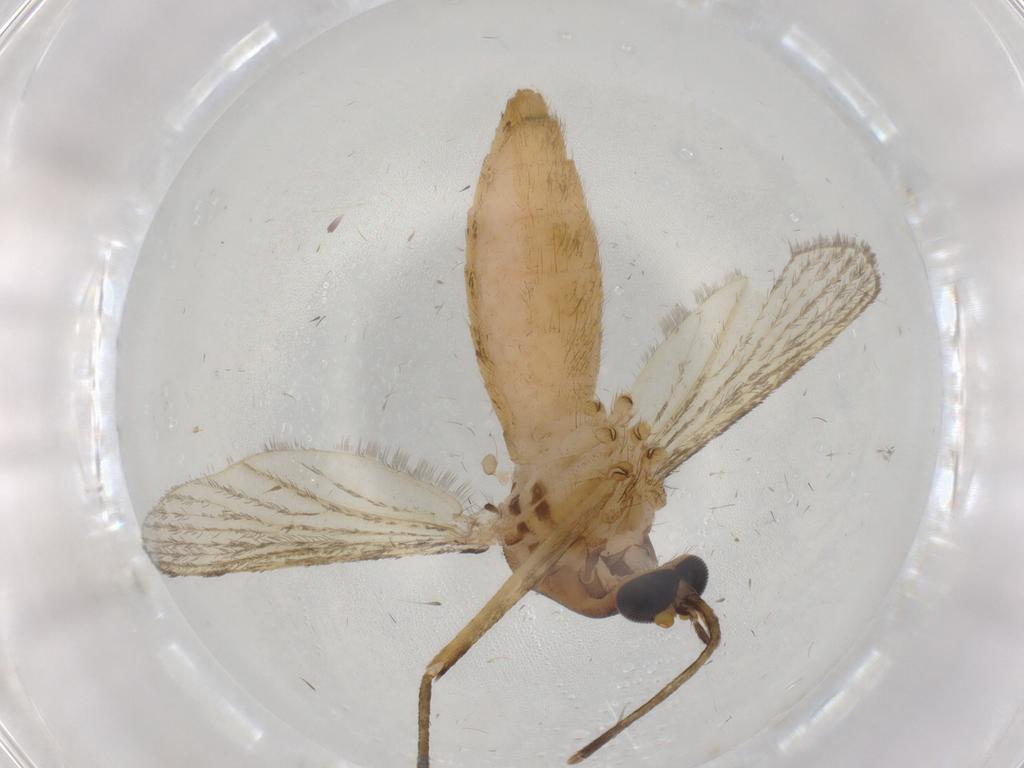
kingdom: Animalia
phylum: Arthropoda
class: Insecta
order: Diptera
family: Culicidae
